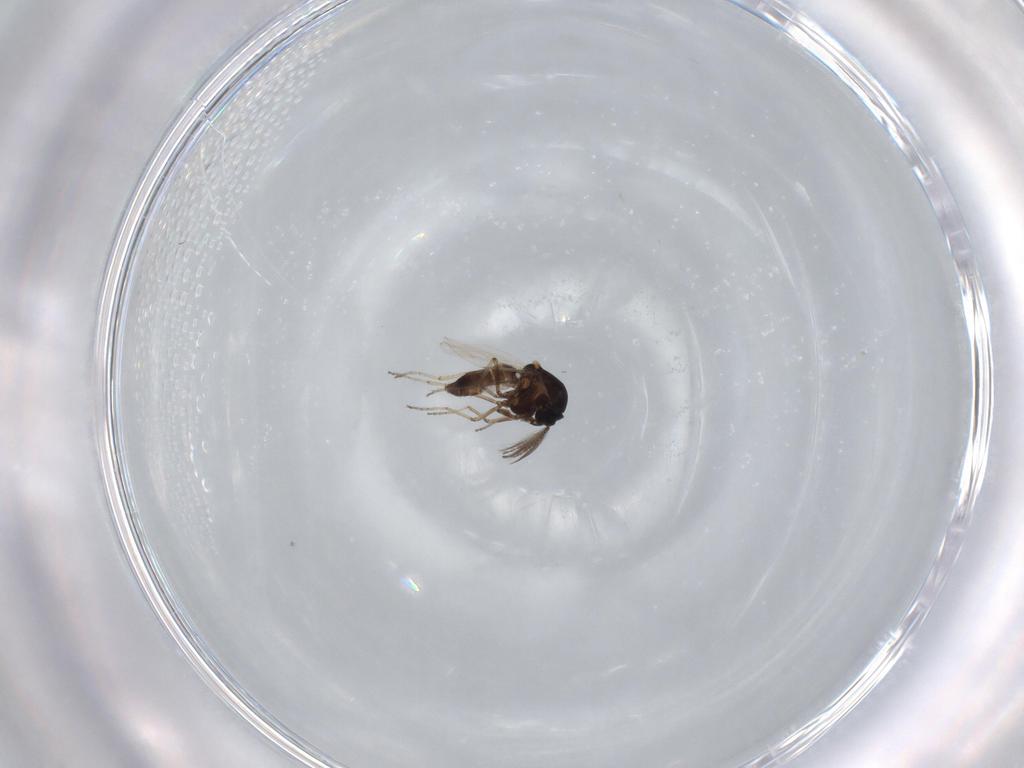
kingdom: Animalia
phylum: Arthropoda
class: Insecta
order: Diptera
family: Ceratopogonidae
